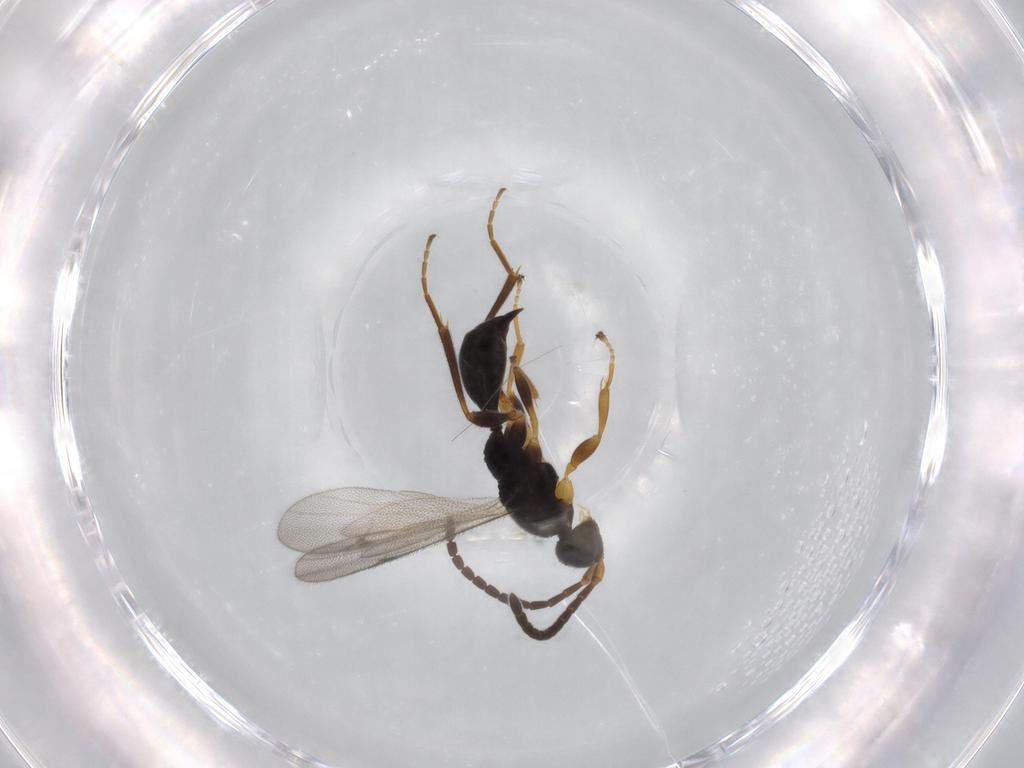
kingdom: Animalia
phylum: Arthropoda
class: Insecta
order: Hymenoptera
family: Proctotrupidae
